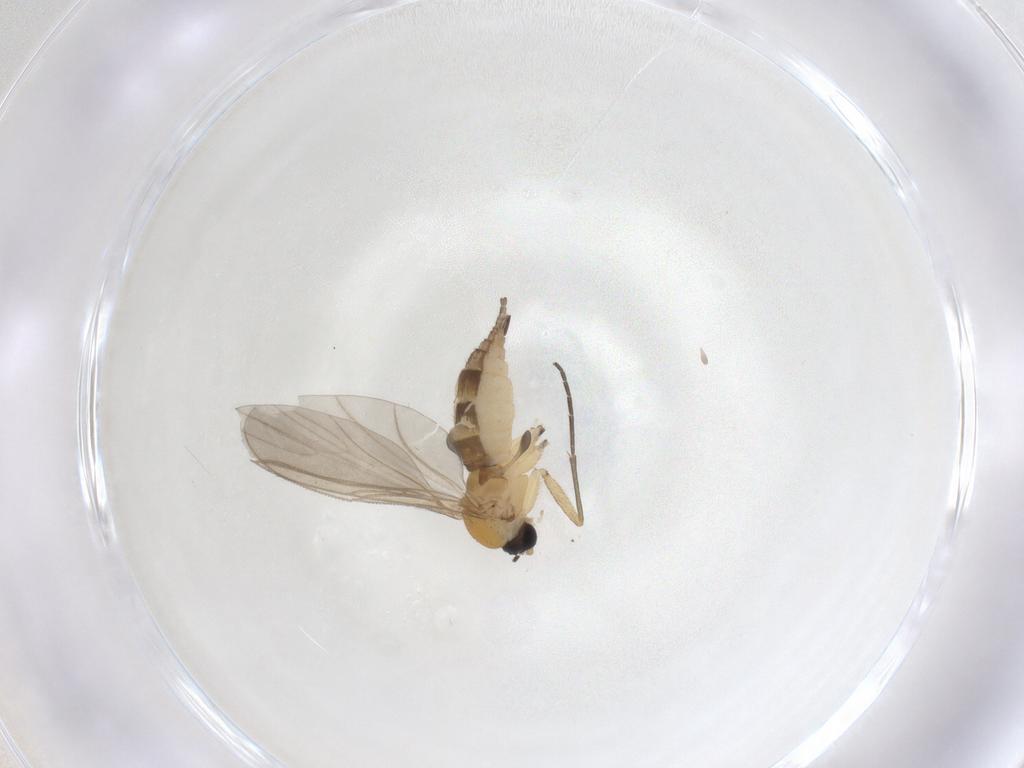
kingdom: Animalia
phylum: Arthropoda
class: Insecta
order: Diptera
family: Sciaridae
